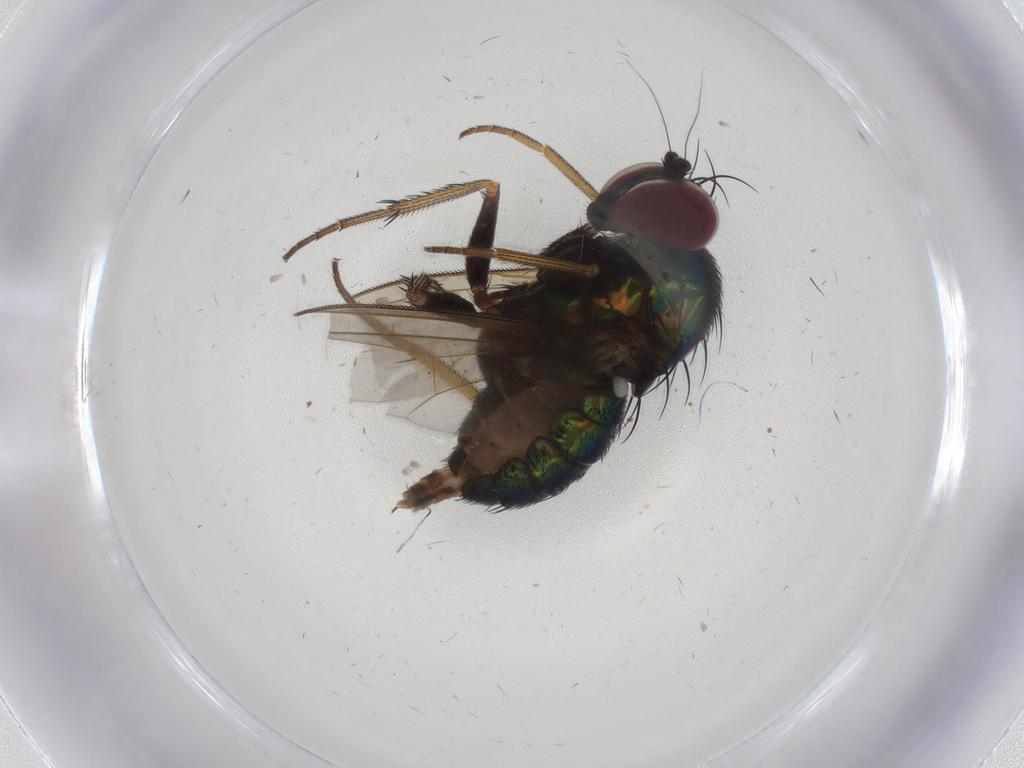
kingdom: Animalia
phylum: Arthropoda
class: Insecta
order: Diptera
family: Dolichopodidae
